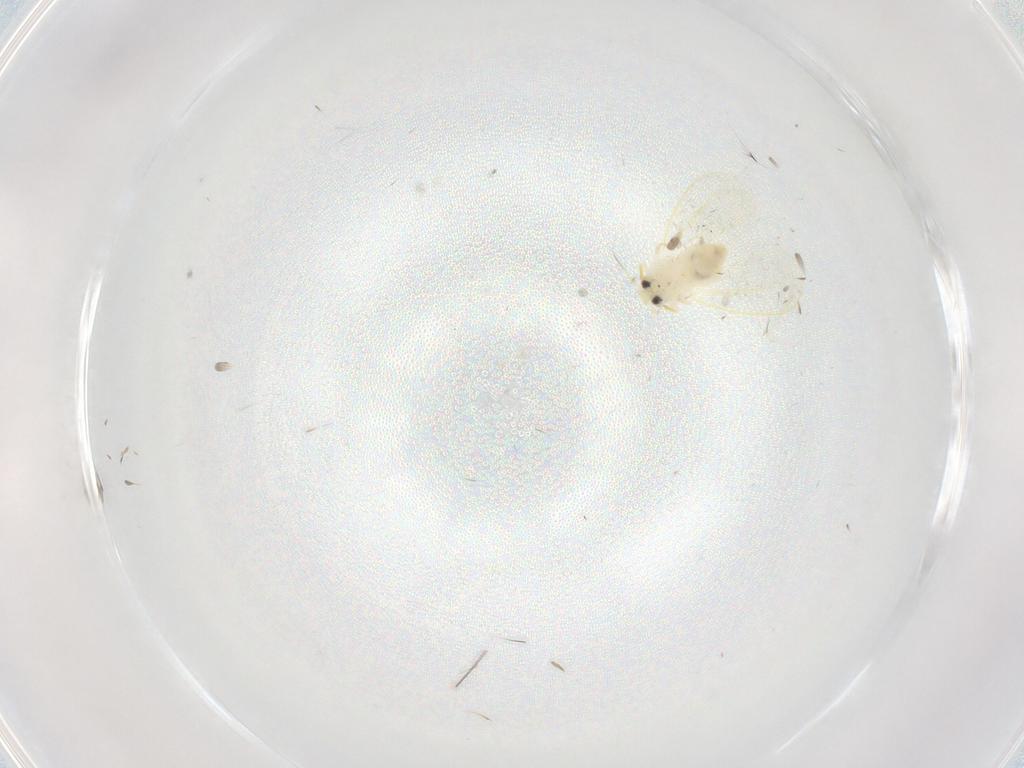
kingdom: Animalia
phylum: Arthropoda
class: Insecta
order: Hemiptera
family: Aleyrodidae
